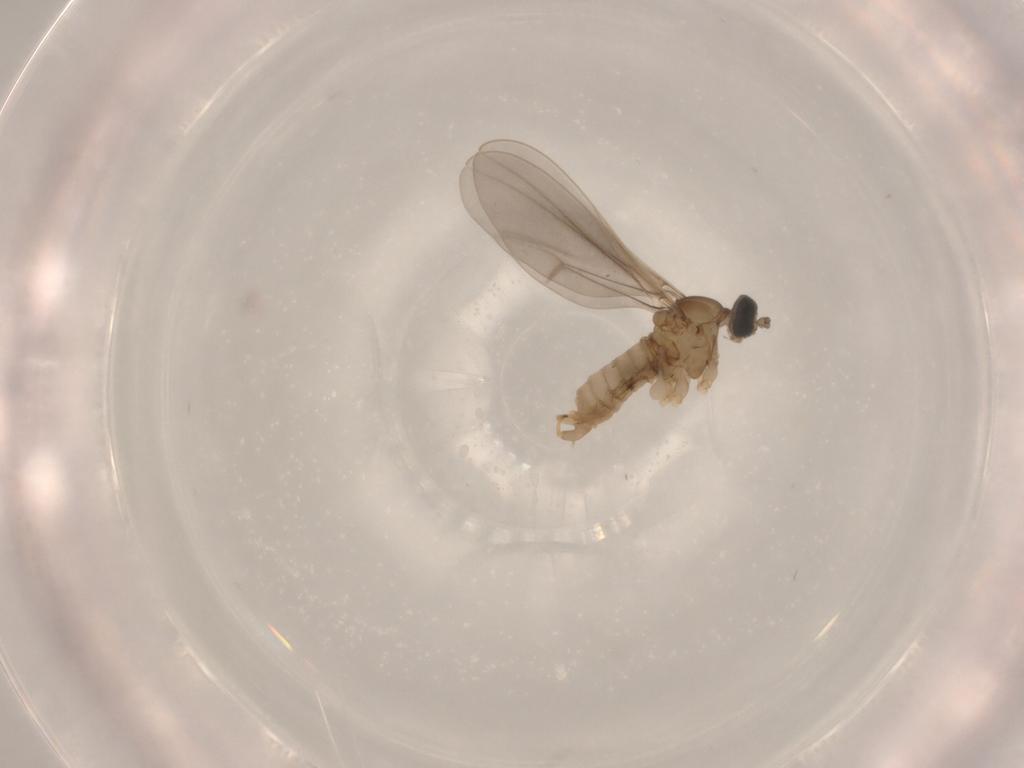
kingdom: Animalia
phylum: Arthropoda
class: Insecta
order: Diptera
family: Cecidomyiidae
